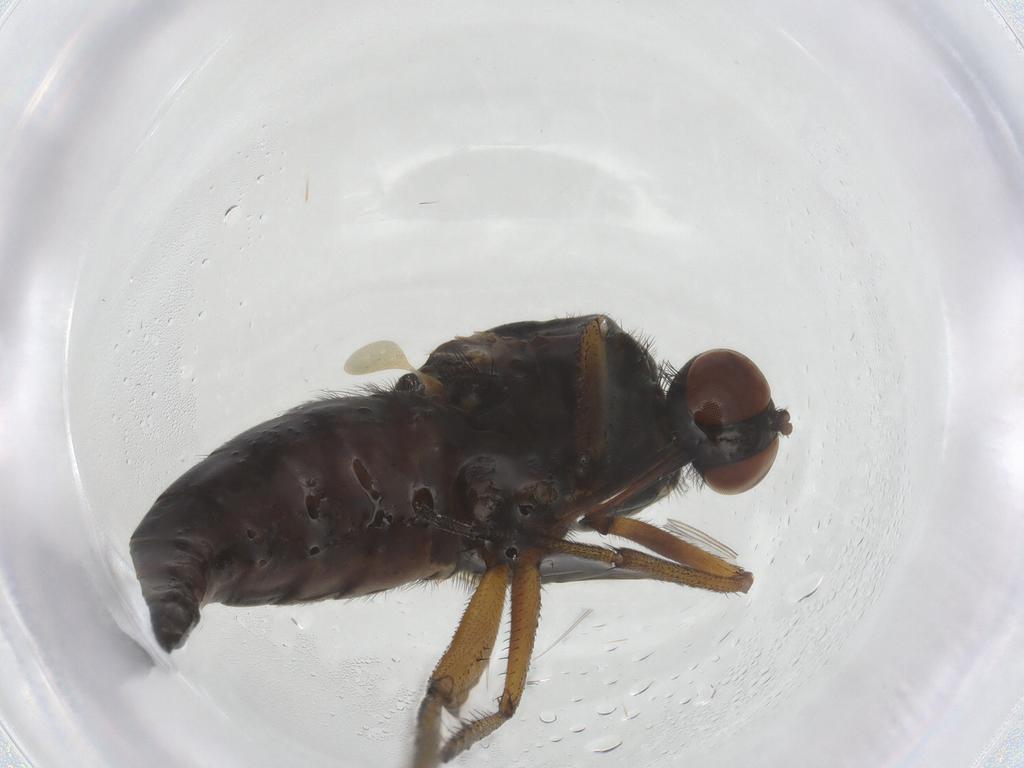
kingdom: Animalia
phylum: Arthropoda
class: Insecta
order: Diptera
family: Empididae
